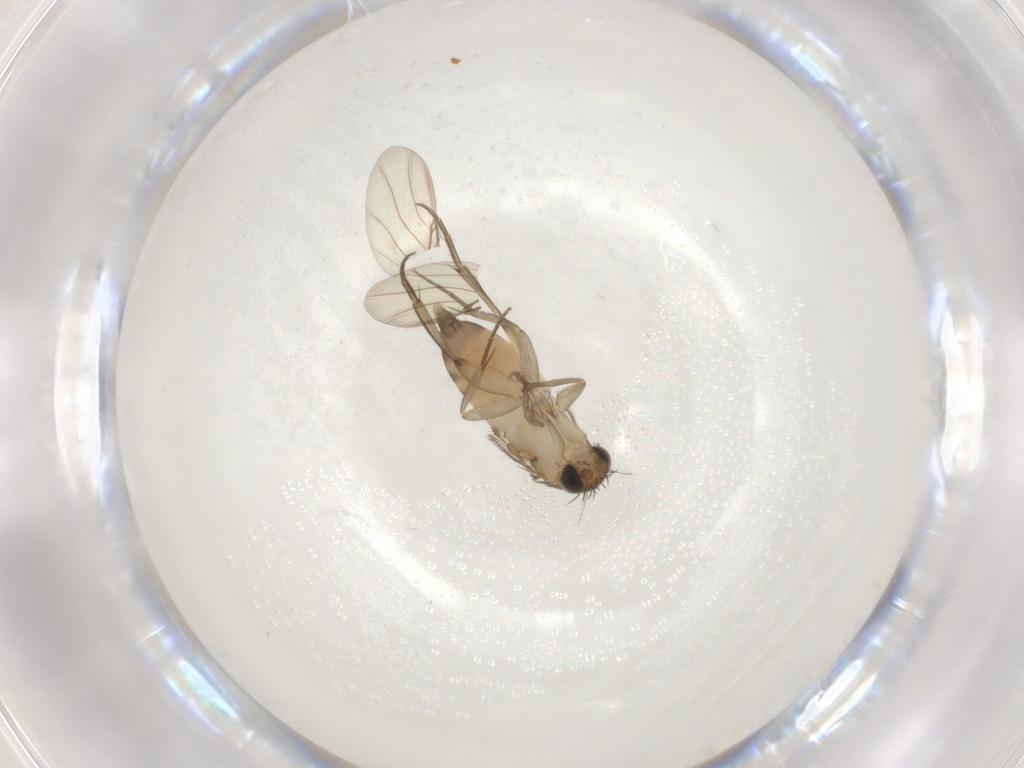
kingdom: Animalia
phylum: Arthropoda
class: Insecta
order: Diptera
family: Phoridae
